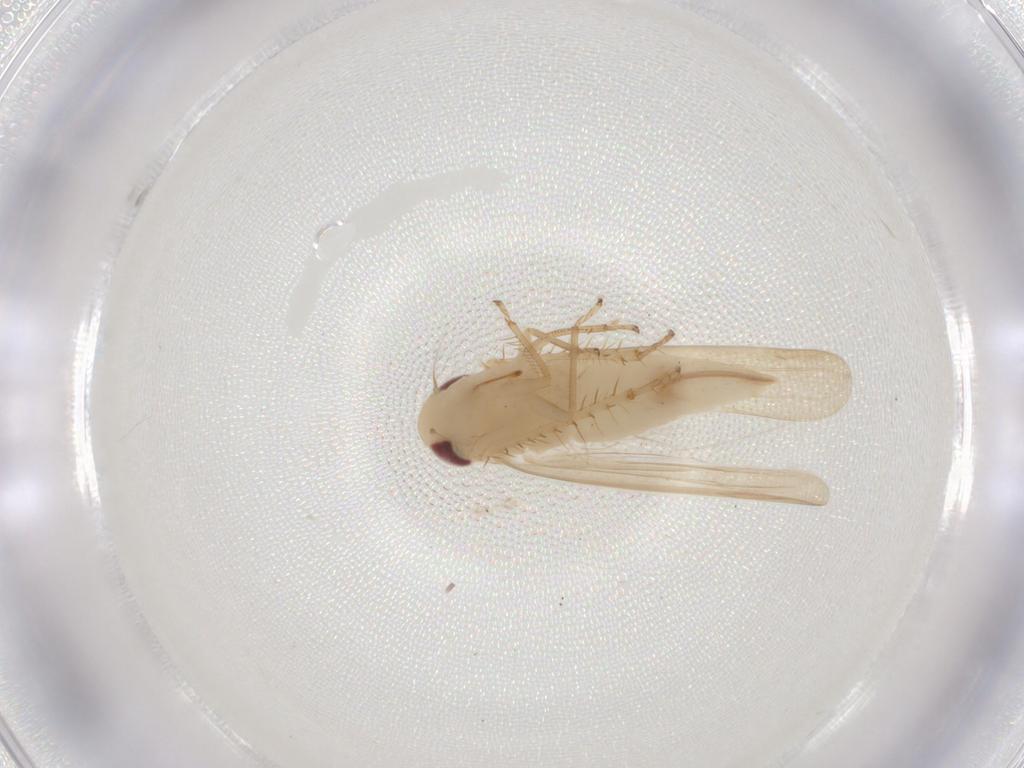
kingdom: Animalia
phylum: Arthropoda
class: Insecta
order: Hemiptera
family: Cicadellidae
